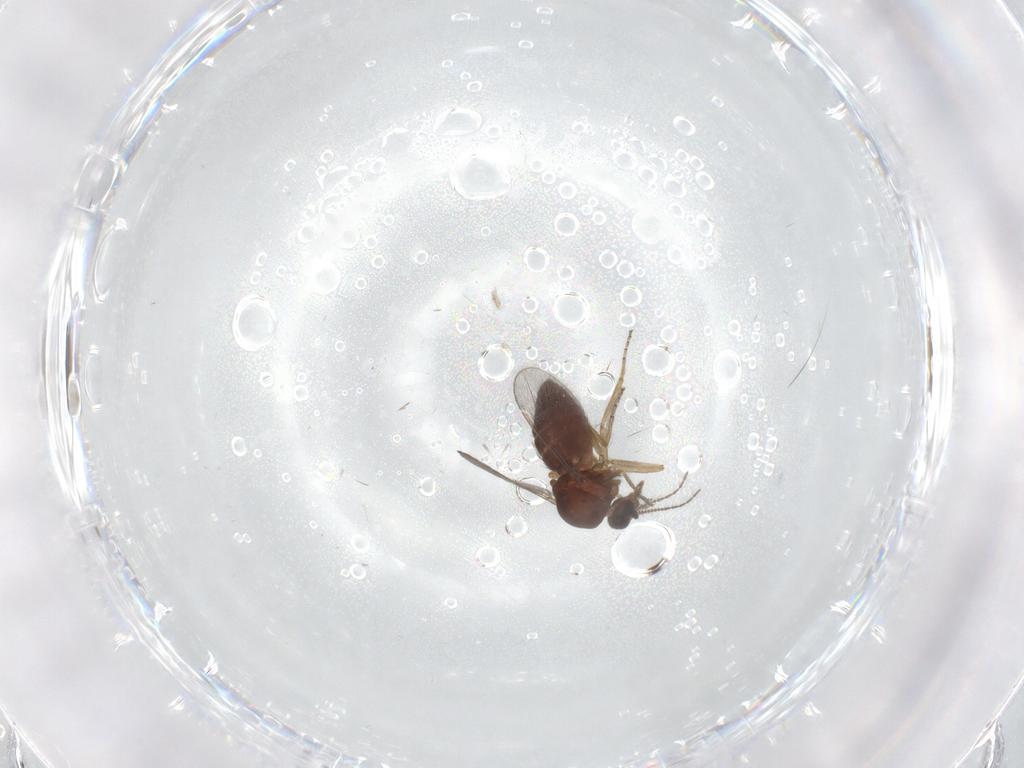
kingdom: Animalia
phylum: Arthropoda
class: Insecta
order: Diptera
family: Ceratopogonidae
